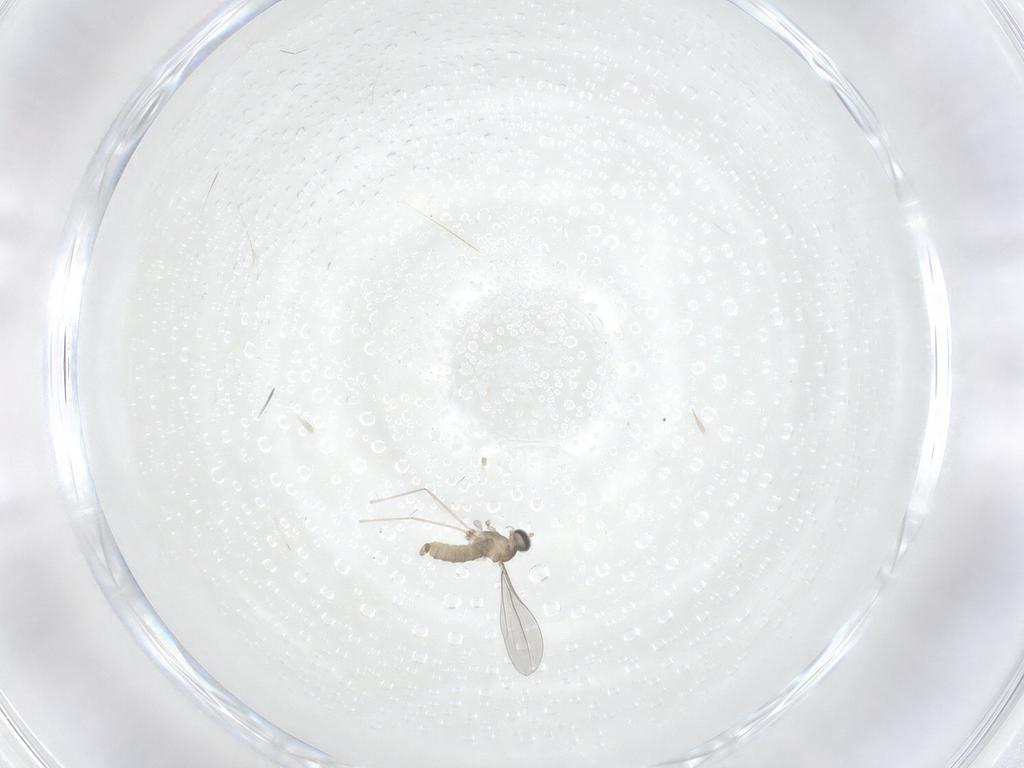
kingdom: Animalia
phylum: Arthropoda
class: Insecta
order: Diptera
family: Cecidomyiidae
